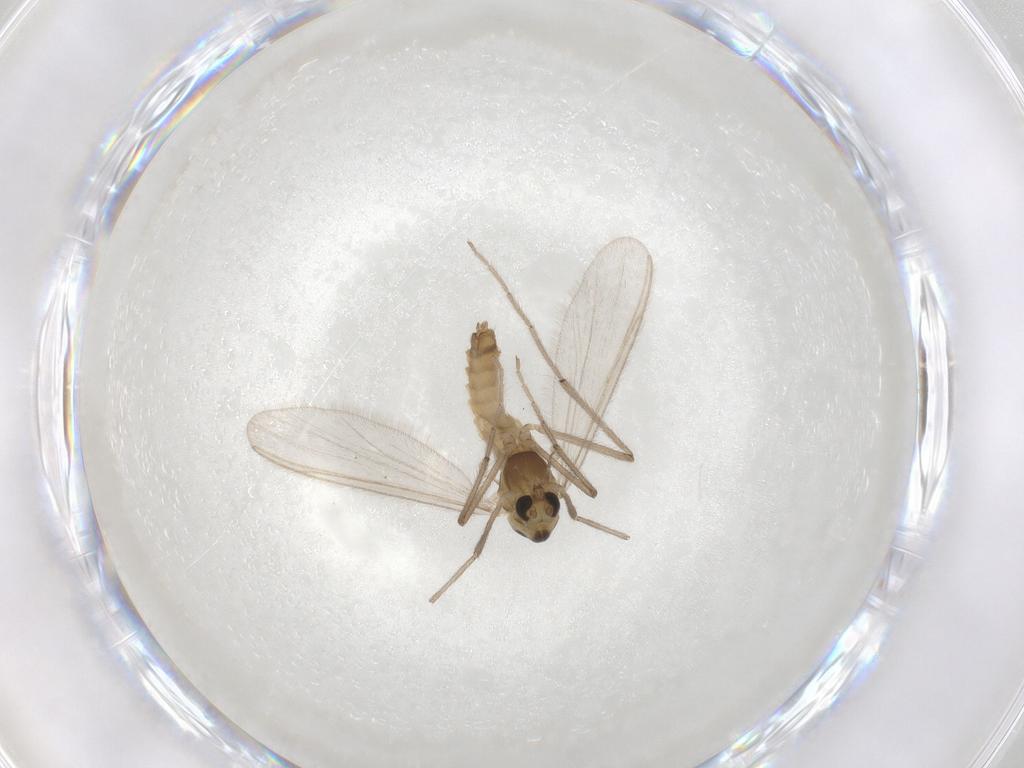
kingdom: Animalia
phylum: Arthropoda
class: Insecta
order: Diptera
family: Chironomidae
